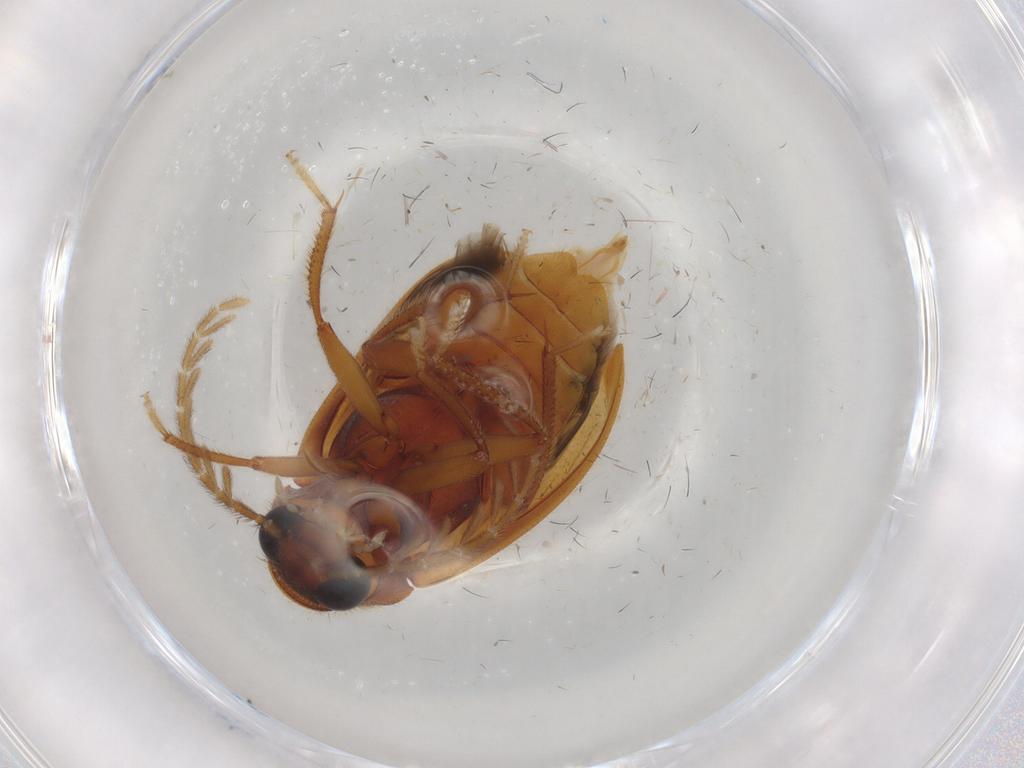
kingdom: Animalia
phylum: Arthropoda
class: Insecta
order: Coleoptera
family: Ptilodactylidae
